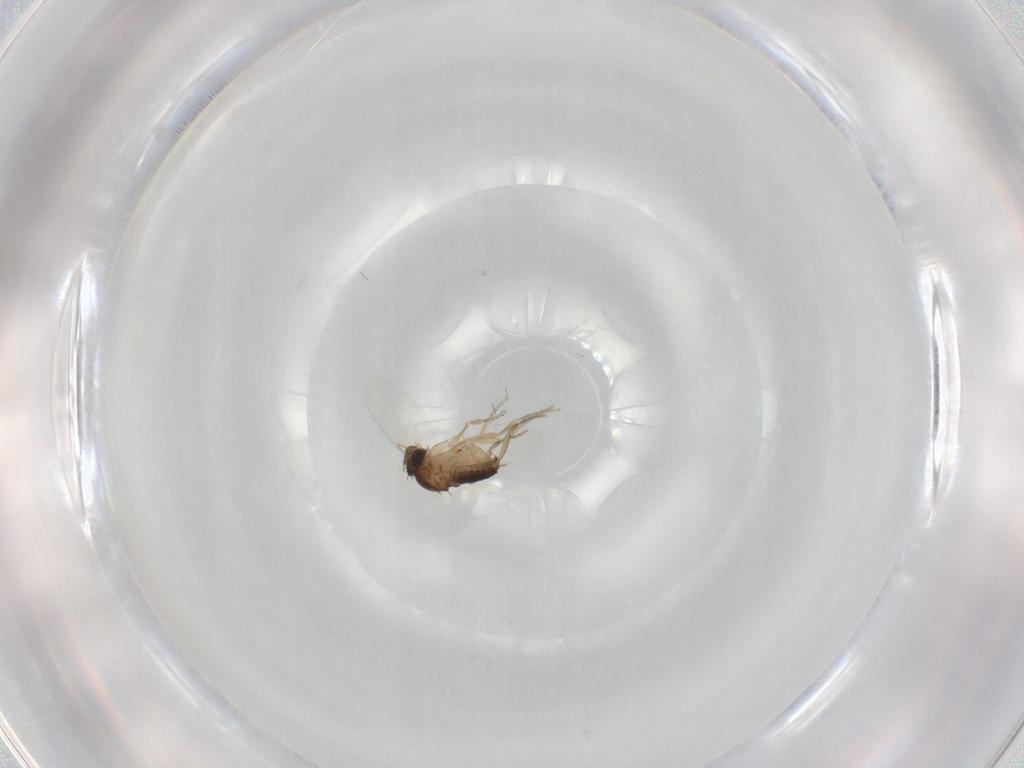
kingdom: Animalia
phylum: Arthropoda
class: Insecta
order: Diptera
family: Phoridae
